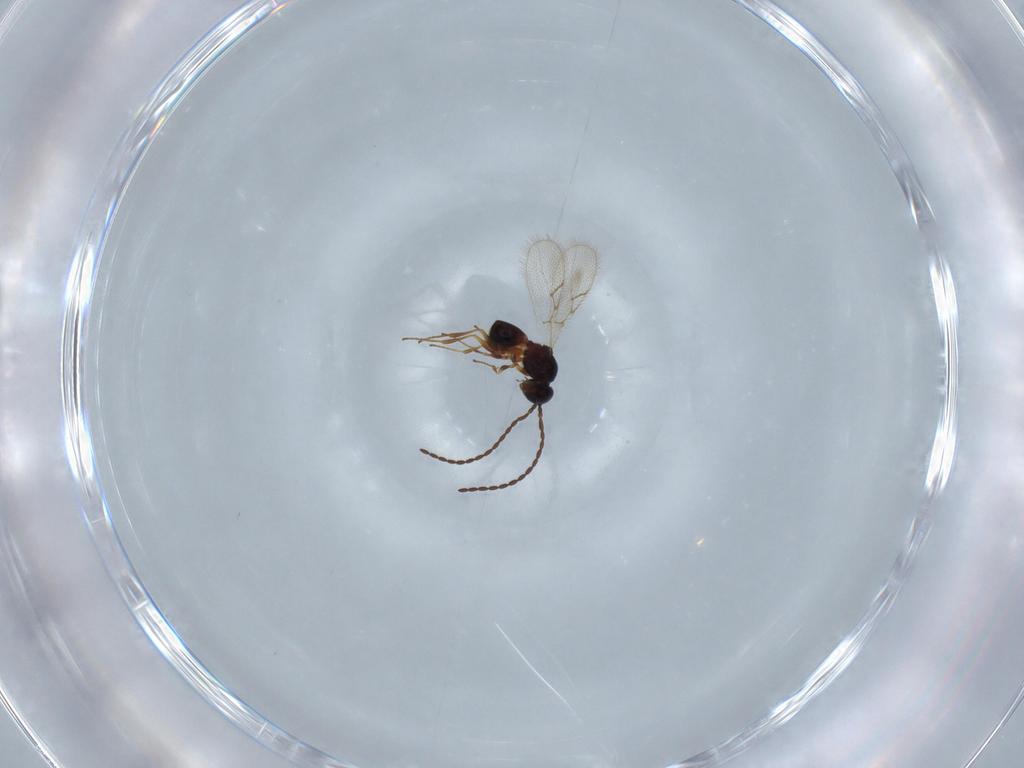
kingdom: Animalia
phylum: Arthropoda
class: Insecta
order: Hymenoptera
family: Figitidae
